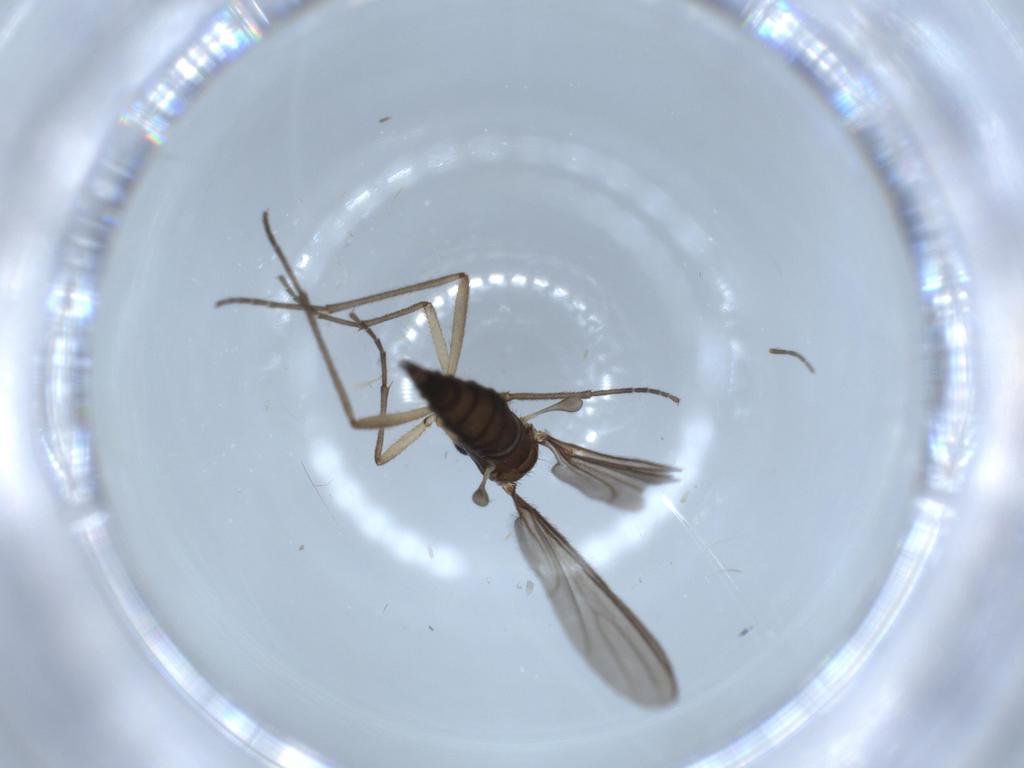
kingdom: Animalia
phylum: Arthropoda
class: Insecta
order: Diptera
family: Sciaridae
